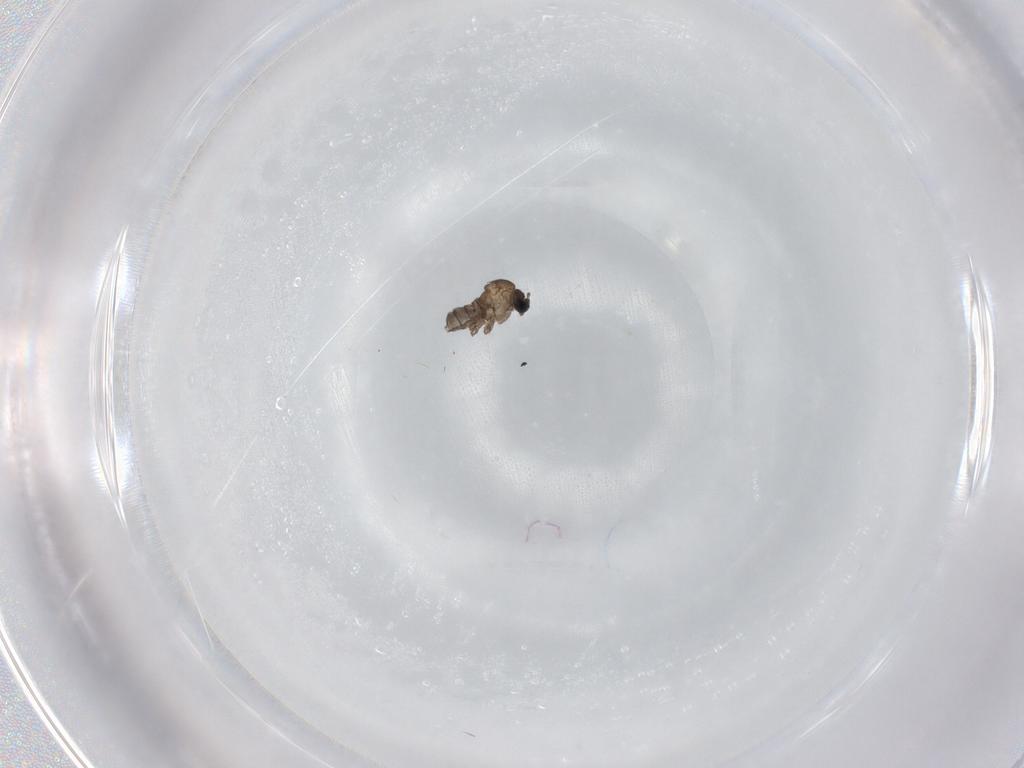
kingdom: Animalia
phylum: Arthropoda
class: Insecta
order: Diptera
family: Sciaridae
